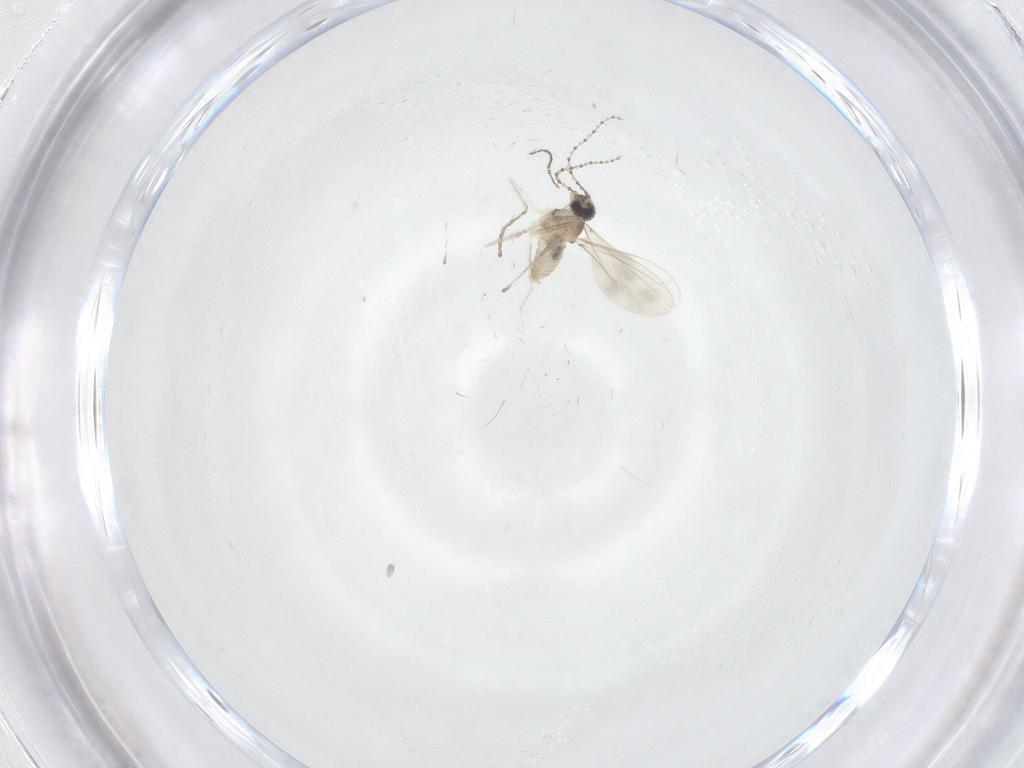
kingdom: Animalia
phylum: Arthropoda
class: Insecta
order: Diptera
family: Cecidomyiidae
